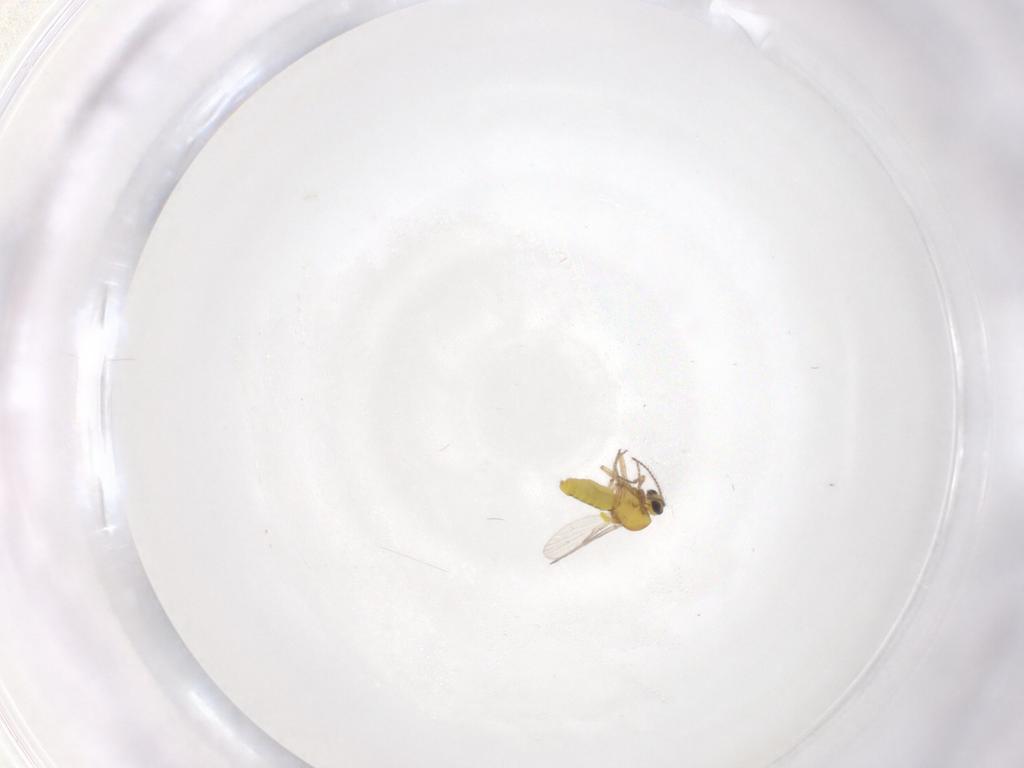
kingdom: Animalia
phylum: Arthropoda
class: Insecta
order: Diptera
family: Ceratopogonidae
